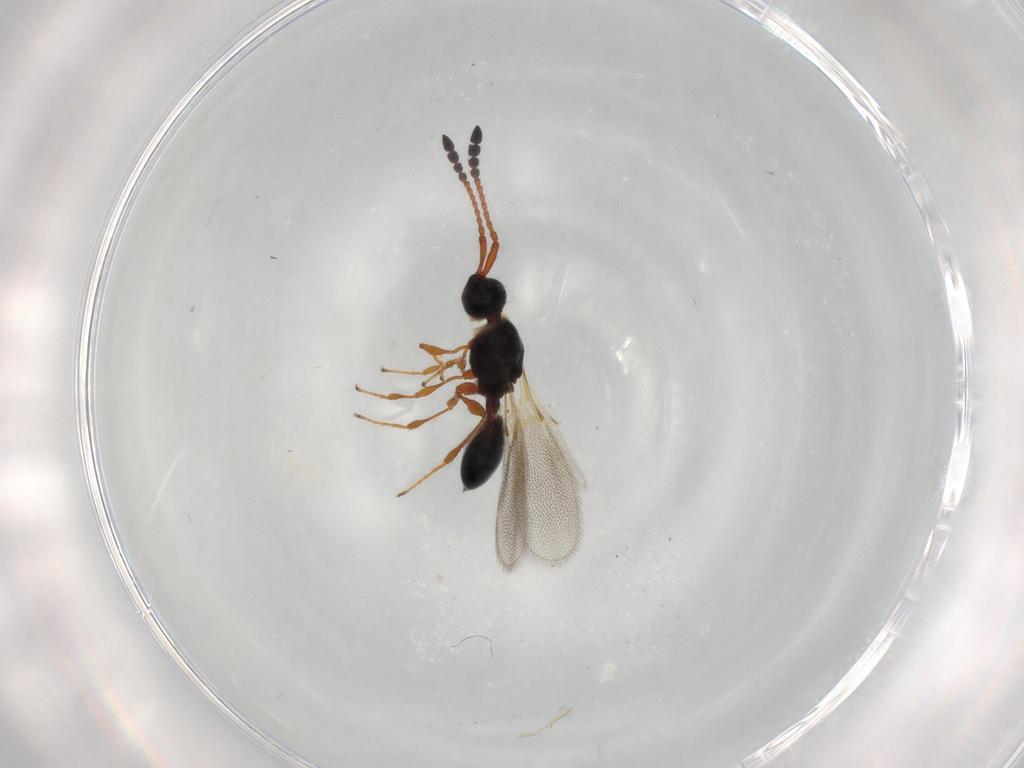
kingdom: Animalia
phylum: Arthropoda
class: Insecta
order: Hymenoptera
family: Diapriidae
